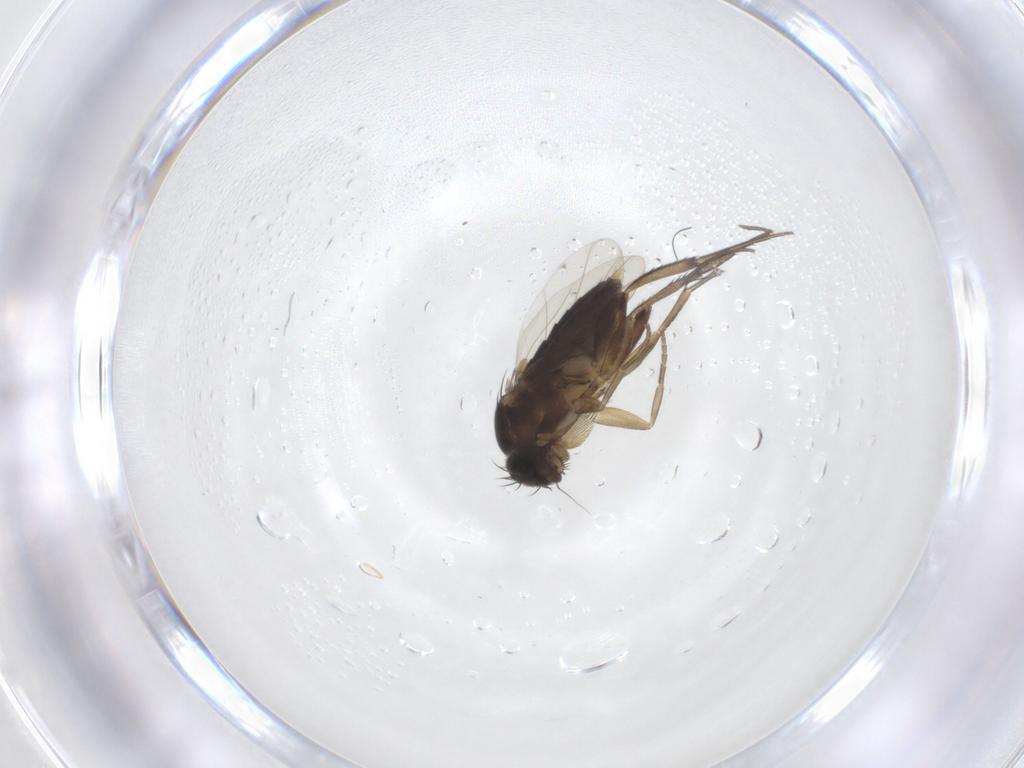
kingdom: Animalia
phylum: Arthropoda
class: Insecta
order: Diptera
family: Phoridae
